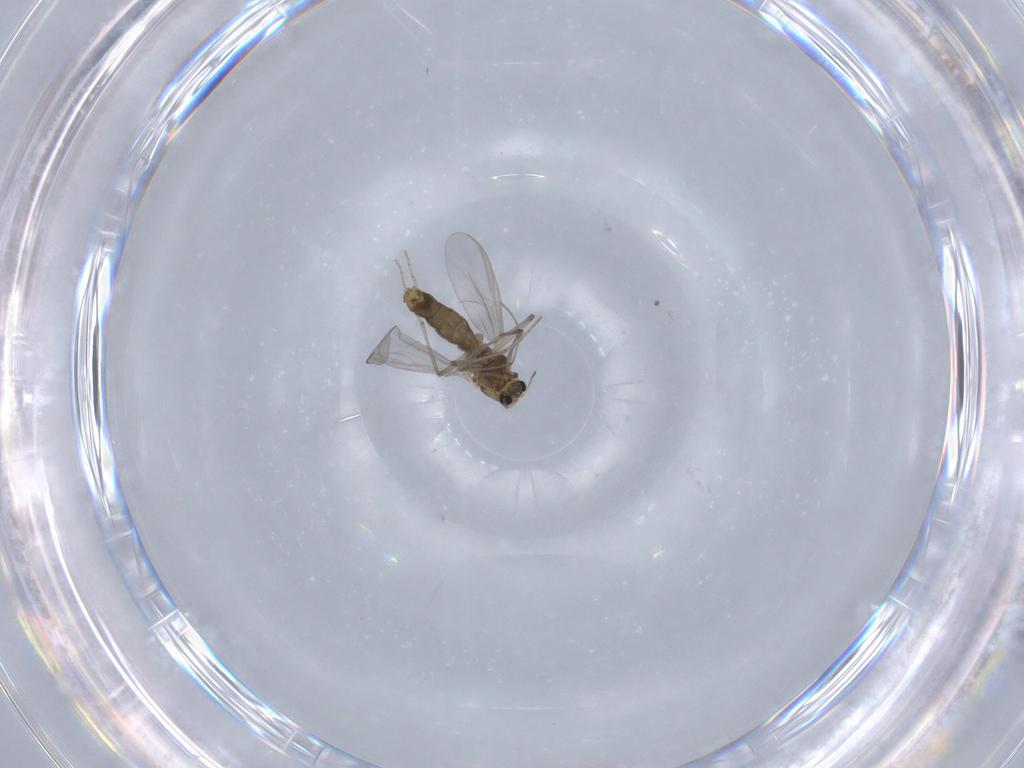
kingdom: Animalia
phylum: Arthropoda
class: Insecta
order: Diptera
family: Chironomidae
